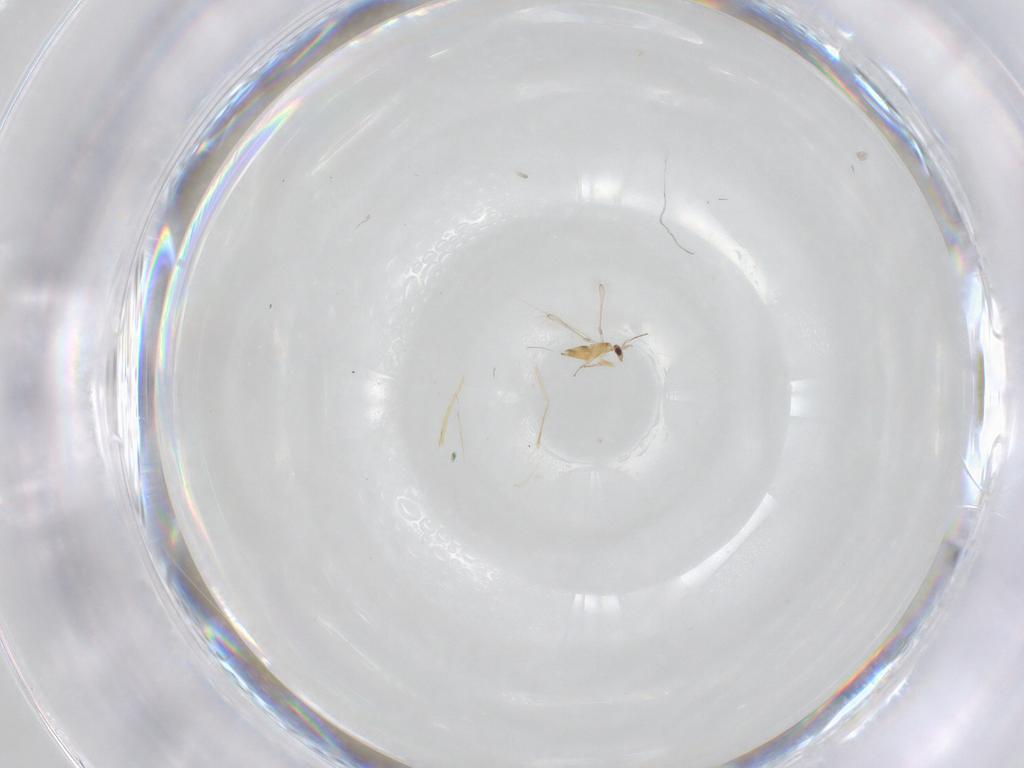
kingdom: Animalia
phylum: Arthropoda
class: Insecta
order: Hymenoptera
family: Mymaridae
